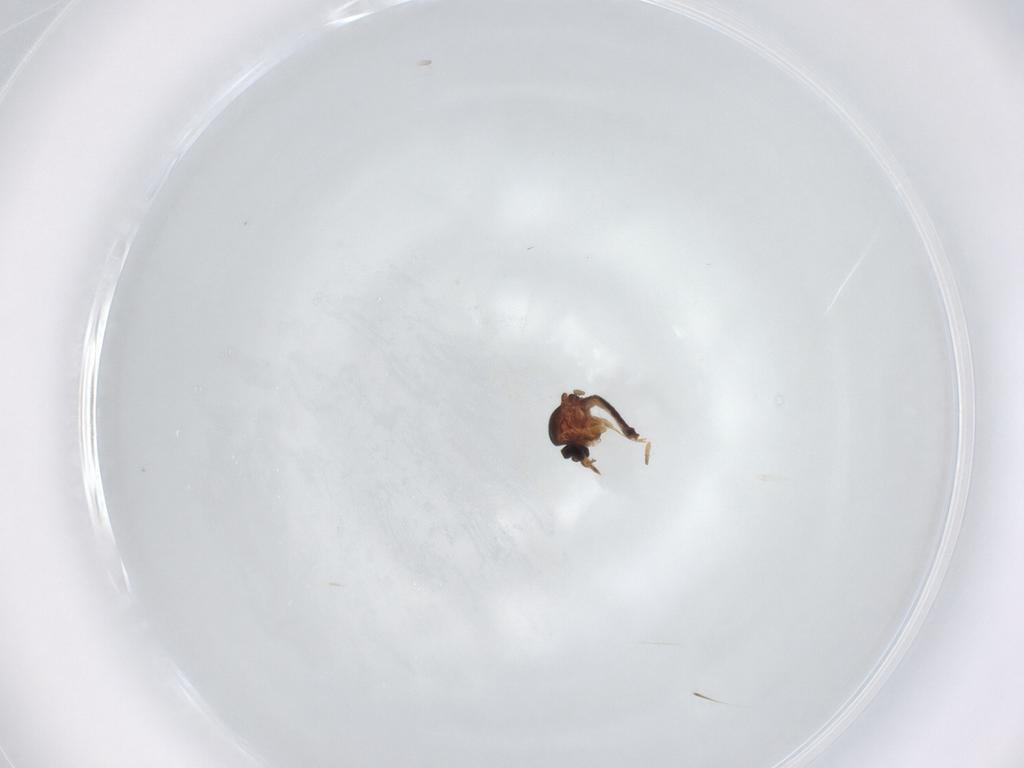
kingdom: Animalia
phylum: Arthropoda
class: Insecta
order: Diptera
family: Ceratopogonidae
